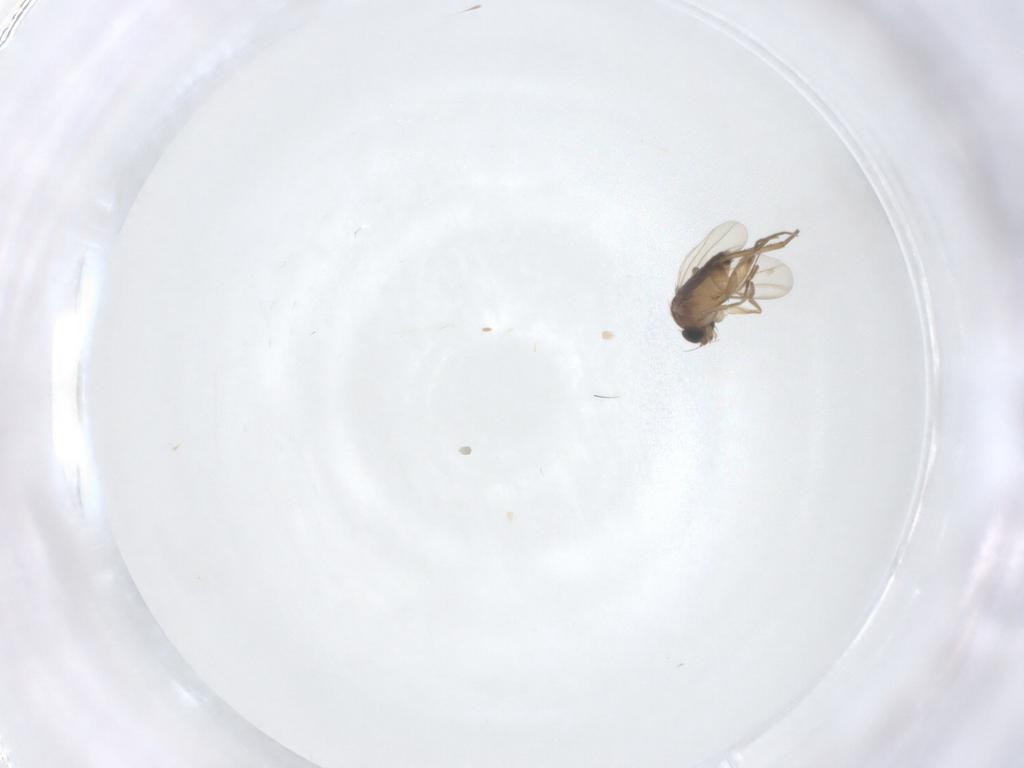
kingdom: Animalia
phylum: Arthropoda
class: Insecta
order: Diptera
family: Phoridae
